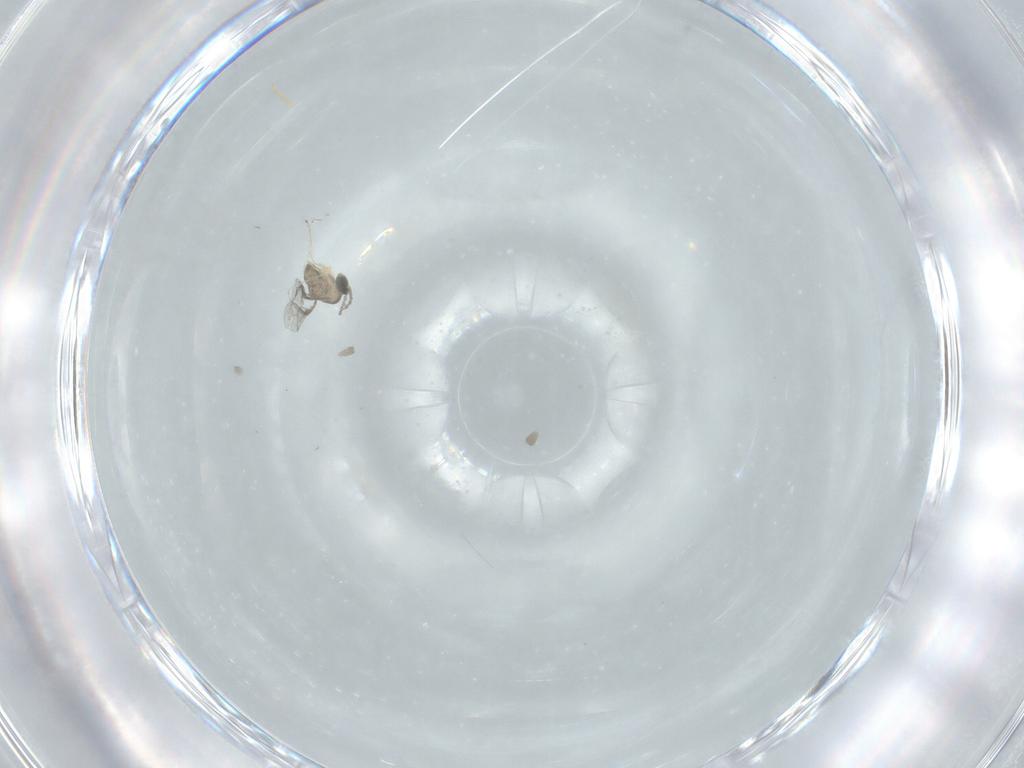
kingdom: Animalia
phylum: Arthropoda
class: Insecta
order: Diptera
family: Cecidomyiidae
